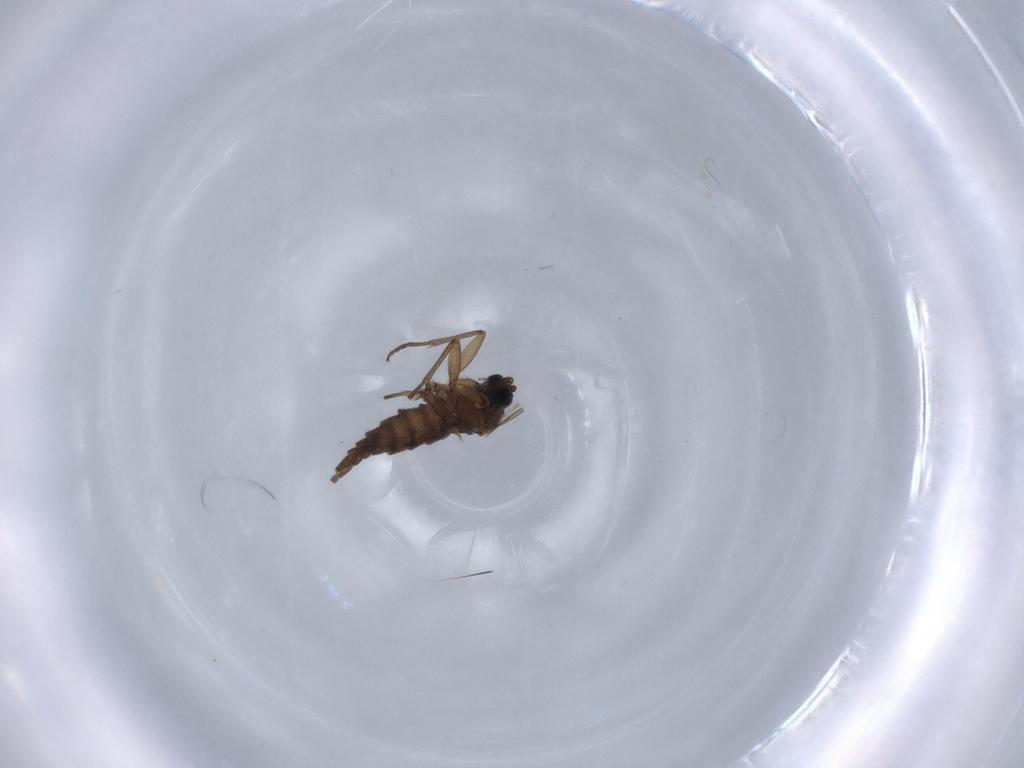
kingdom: Animalia
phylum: Arthropoda
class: Insecta
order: Diptera
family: Sciaridae
